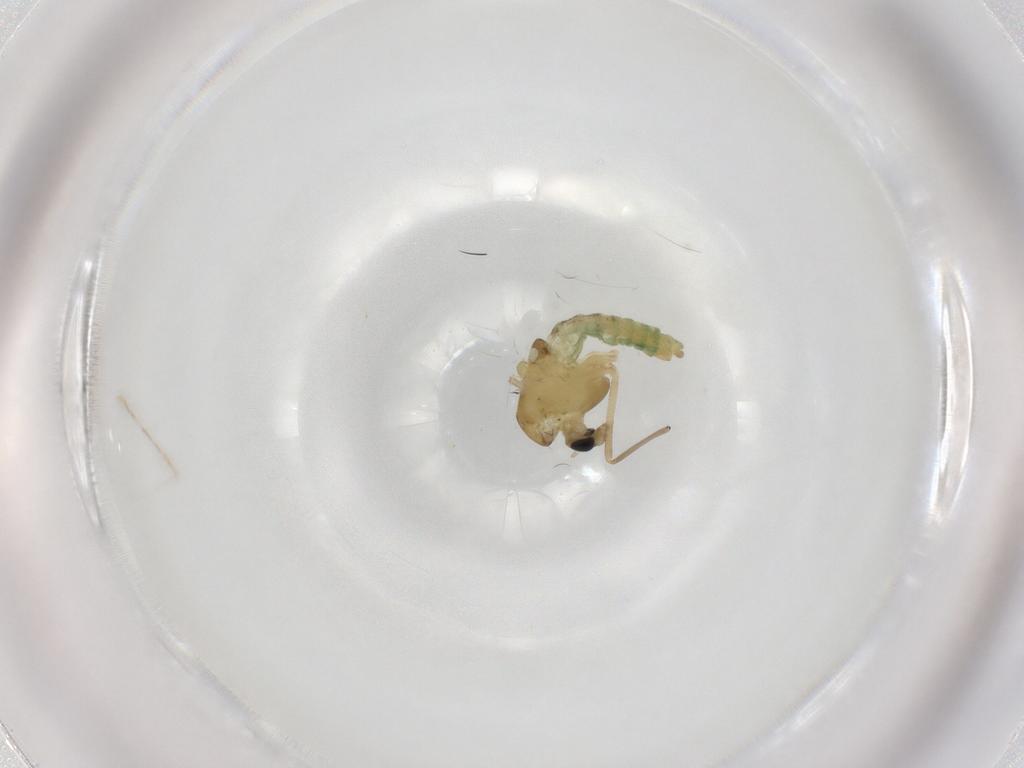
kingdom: Animalia
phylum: Arthropoda
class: Insecta
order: Diptera
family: Chironomidae
